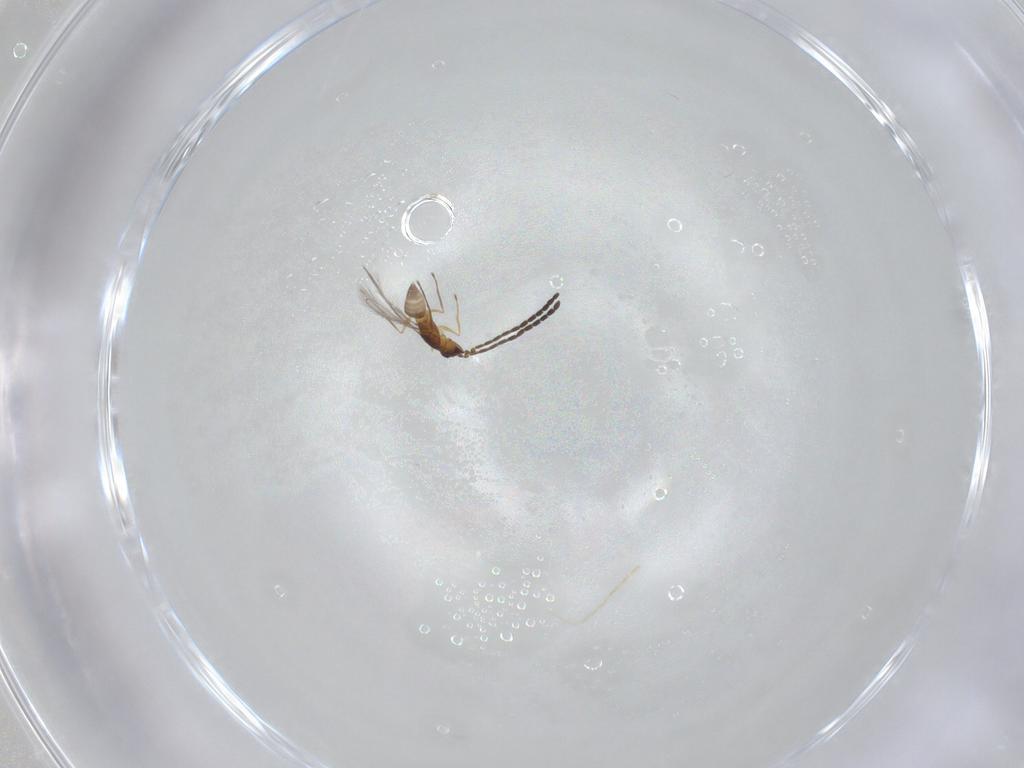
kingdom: Animalia
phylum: Arthropoda
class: Insecta
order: Hymenoptera
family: Mymaridae
